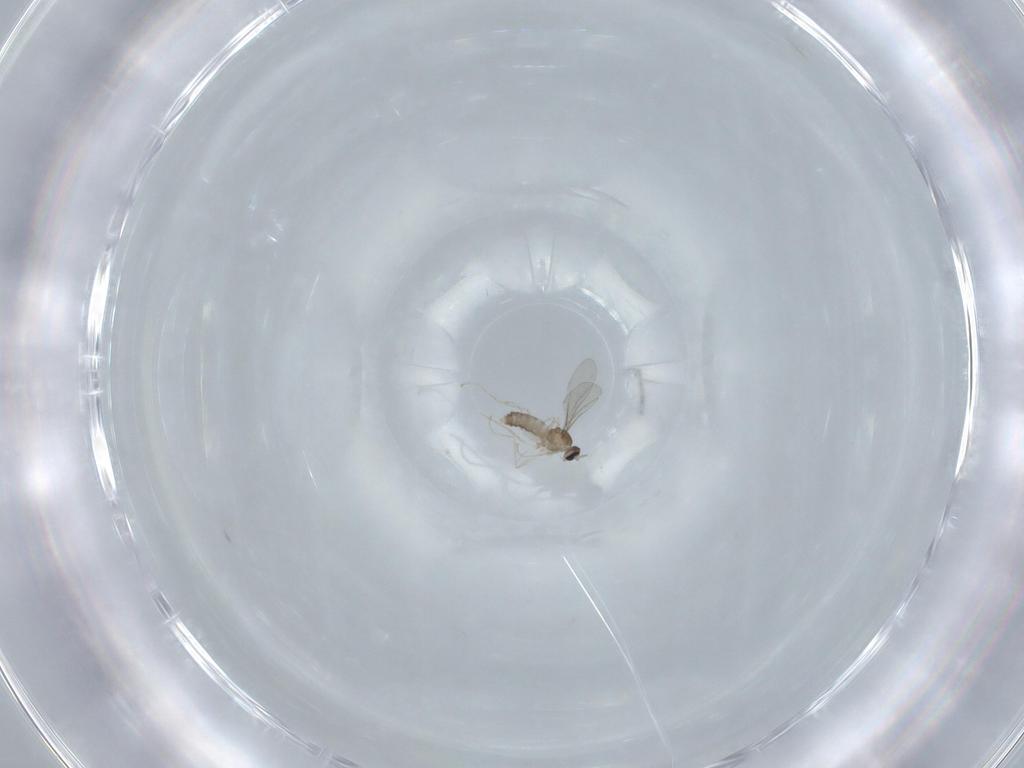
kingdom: Animalia
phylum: Arthropoda
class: Insecta
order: Diptera
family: Cecidomyiidae
